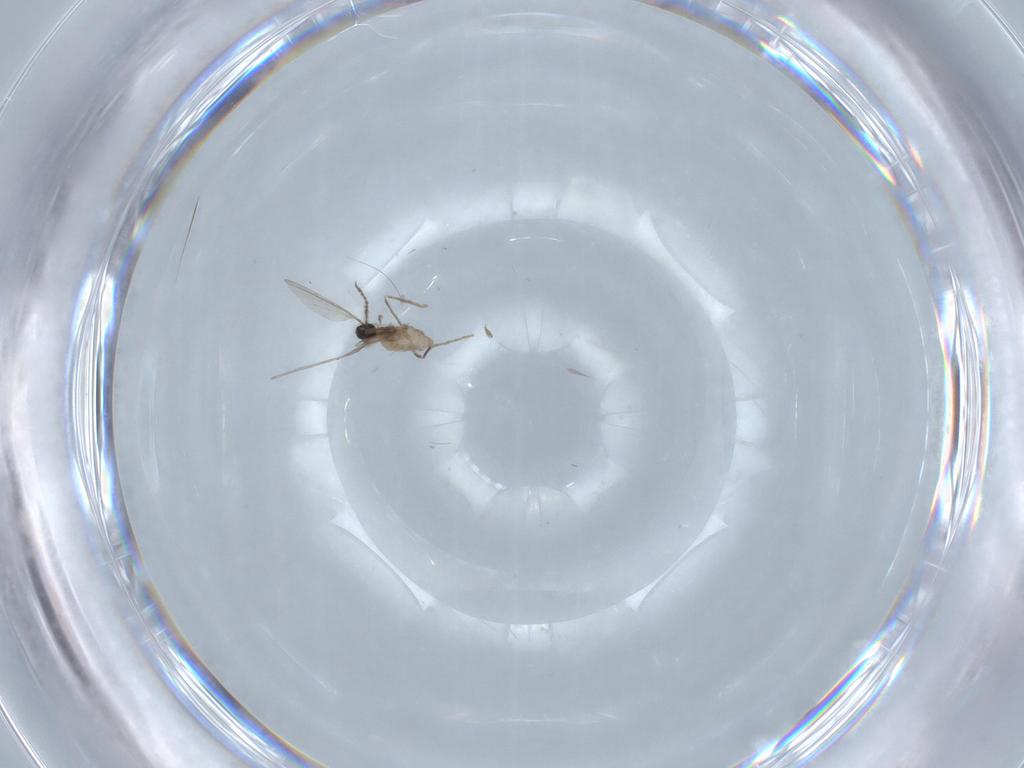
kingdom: Animalia
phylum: Arthropoda
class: Insecta
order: Diptera
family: Cecidomyiidae
